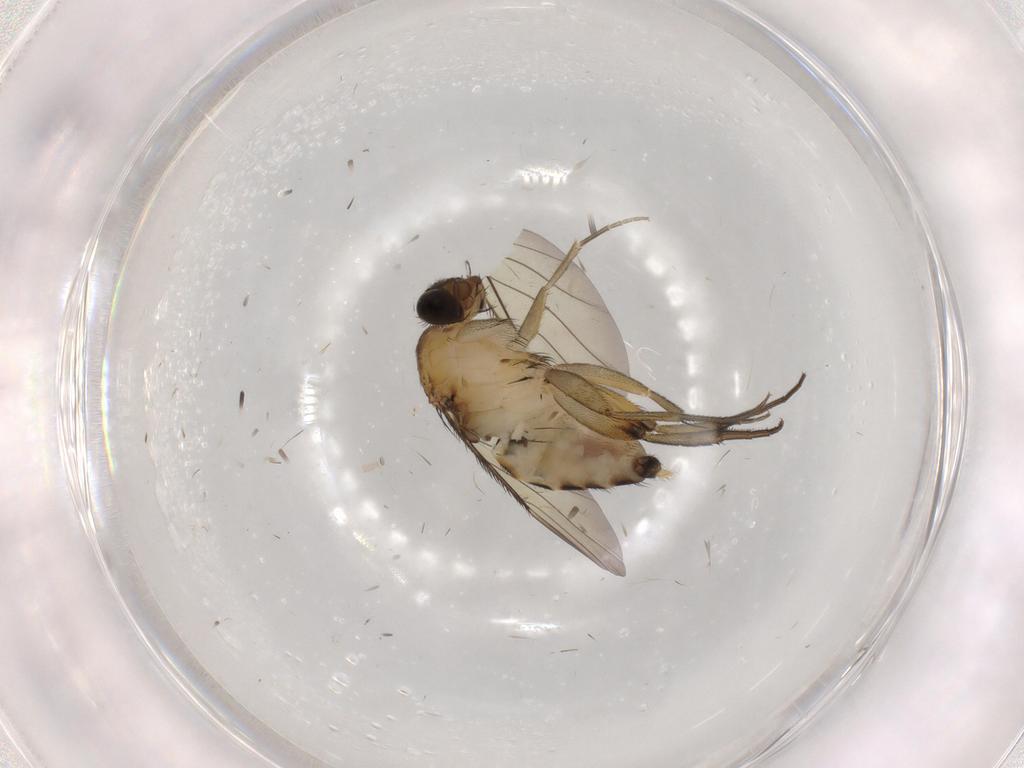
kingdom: Animalia
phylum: Arthropoda
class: Insecta
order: Diptera
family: Phoridae
